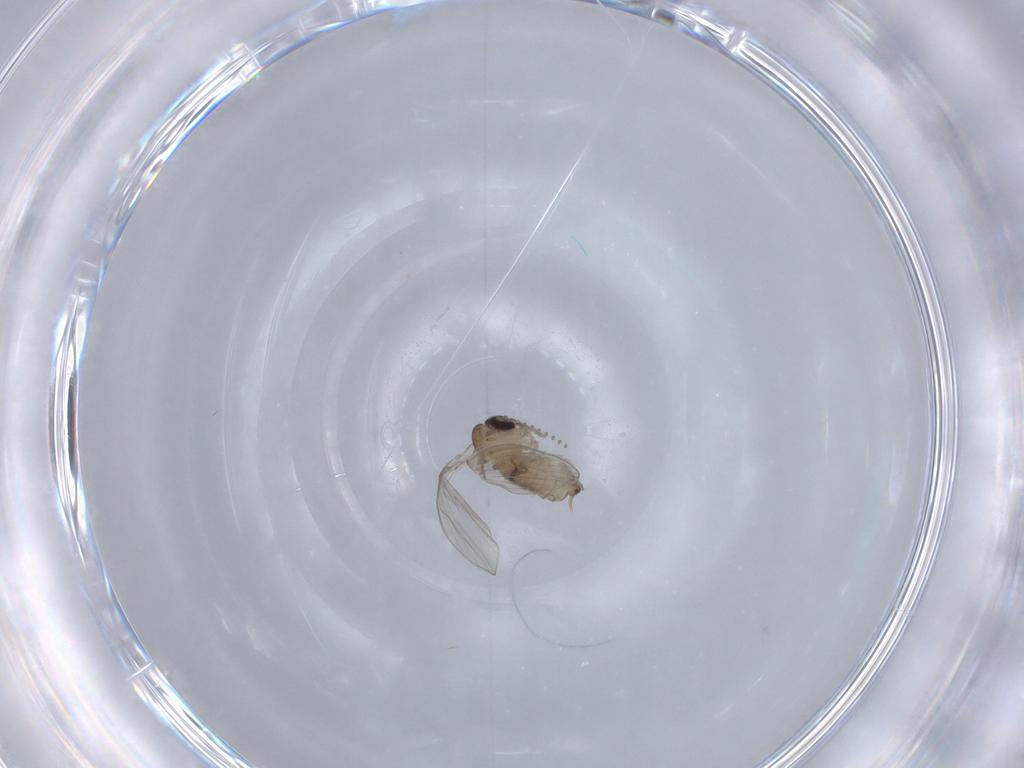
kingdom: Animalia
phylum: Arthropoda
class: Insecta
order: Diptera
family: Psychodidae
